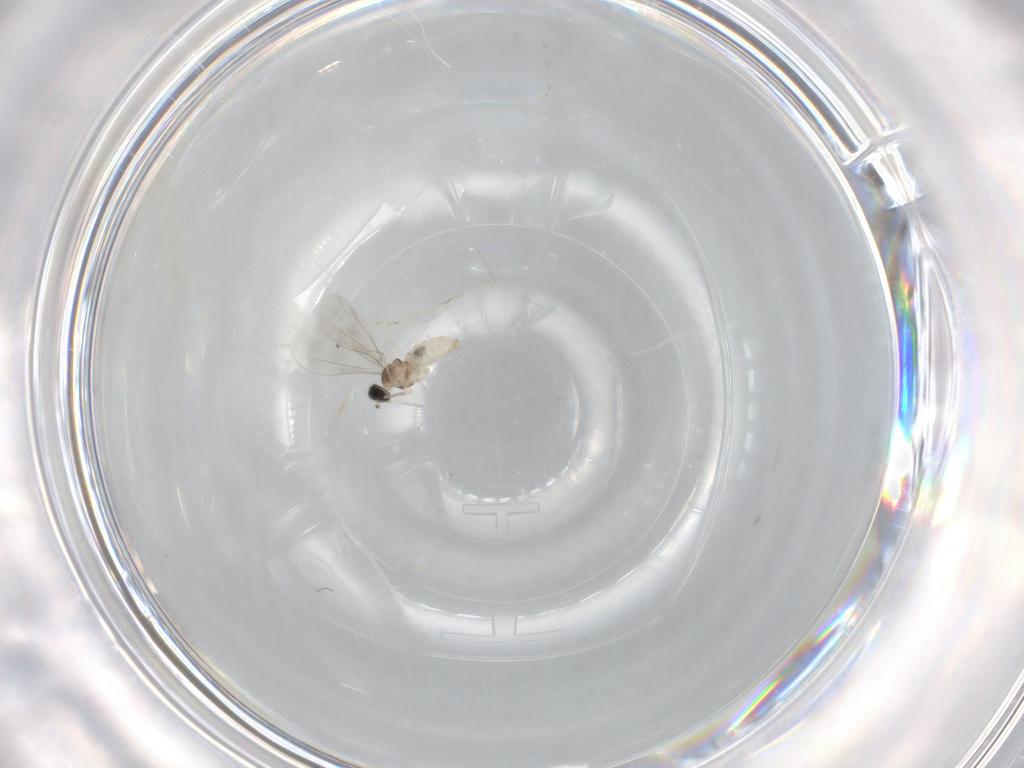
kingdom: Animalia
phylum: Arthropoda
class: Insecta
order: Diptera
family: Cecidomyiidae
